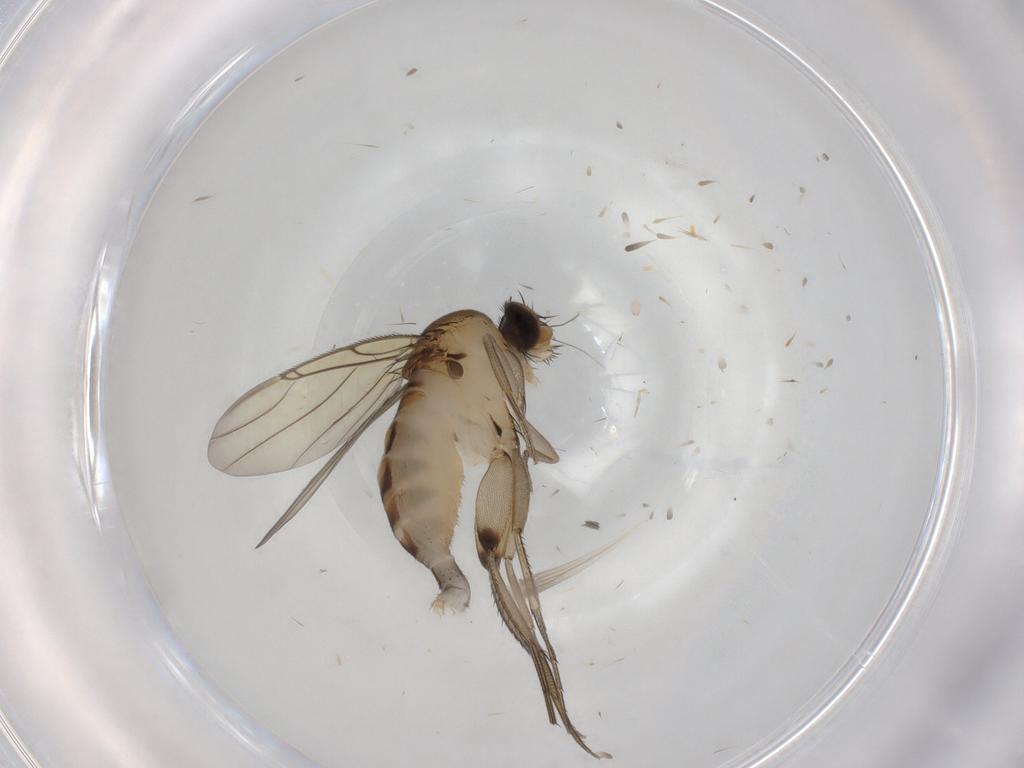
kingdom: Animalia
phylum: Arthropoda
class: Insecta
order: Diptera
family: Phoridae
